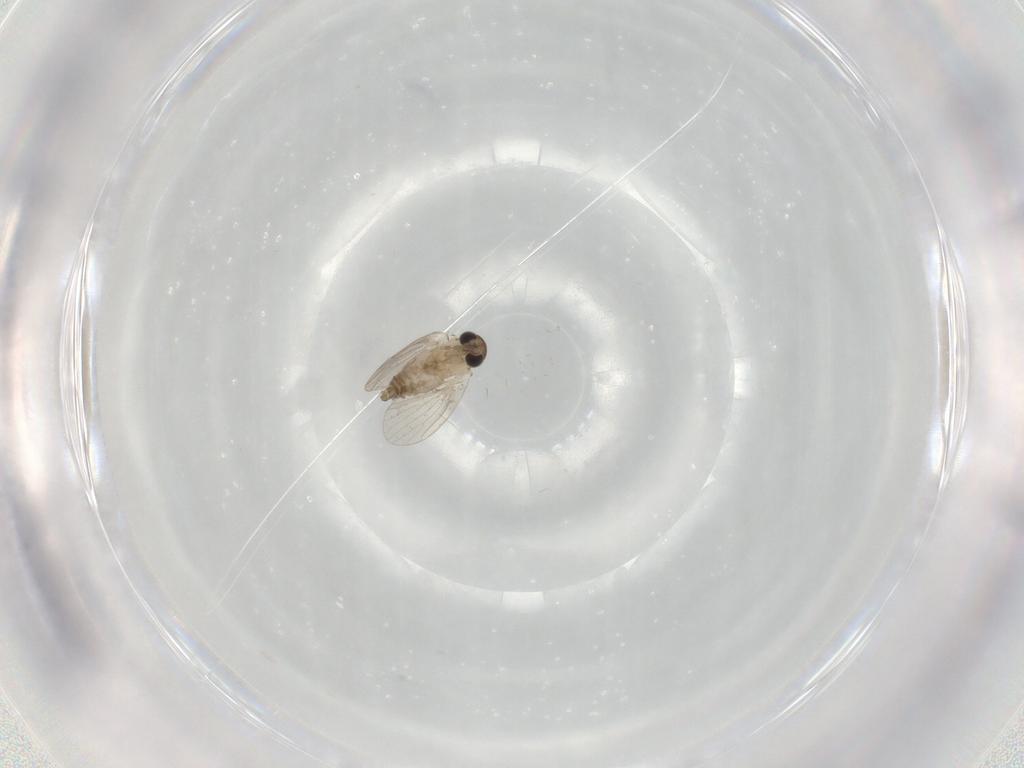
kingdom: Animalia
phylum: Arthropoda
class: Insecta
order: Diptera
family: Psychodidae
